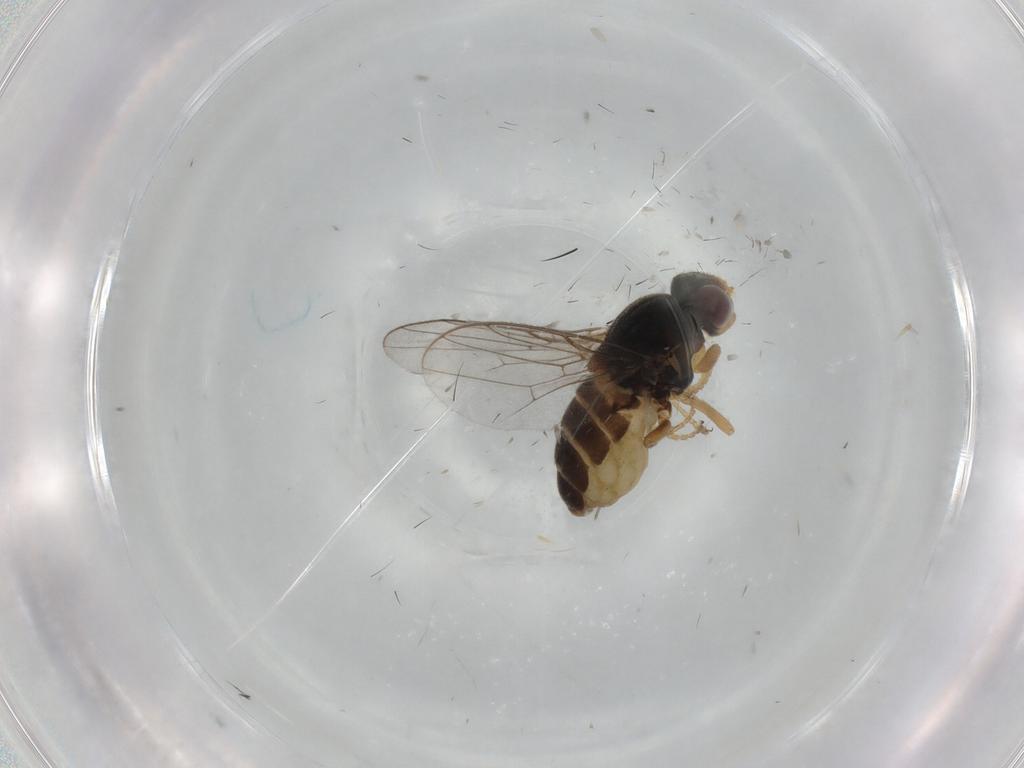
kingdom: Animalia
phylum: Arthropoda
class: Insecta
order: Diptera
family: Chloropidae
